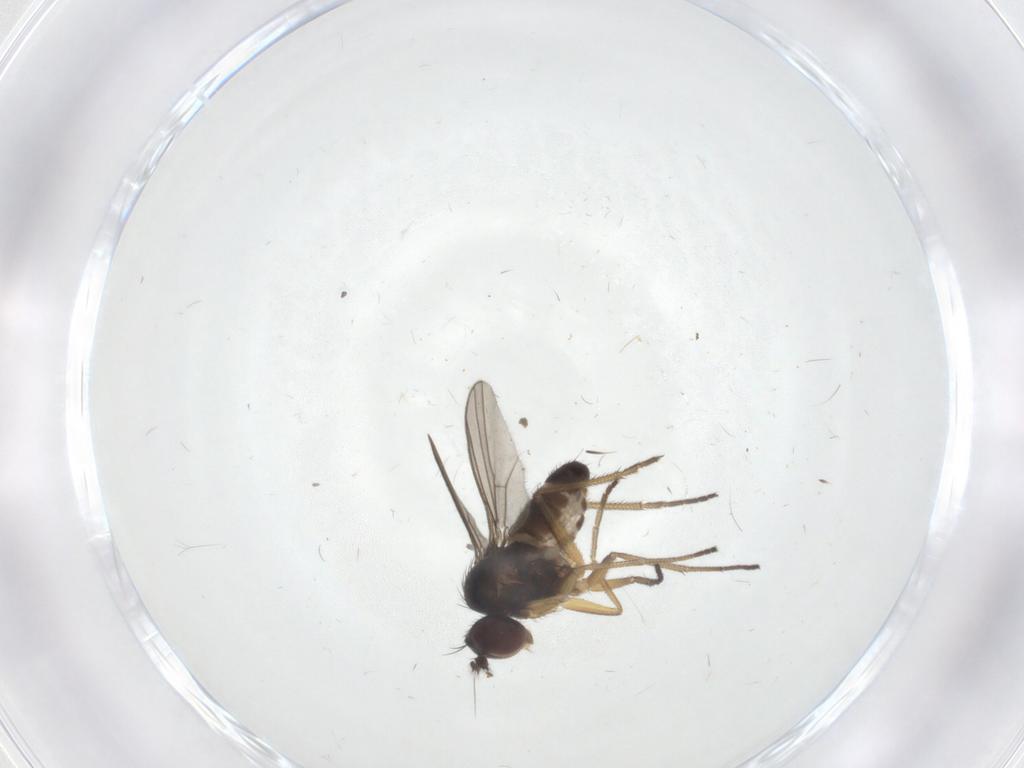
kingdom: Animalia
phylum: Arthropoda
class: Insecta
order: Diptera
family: Dolichopodidae
